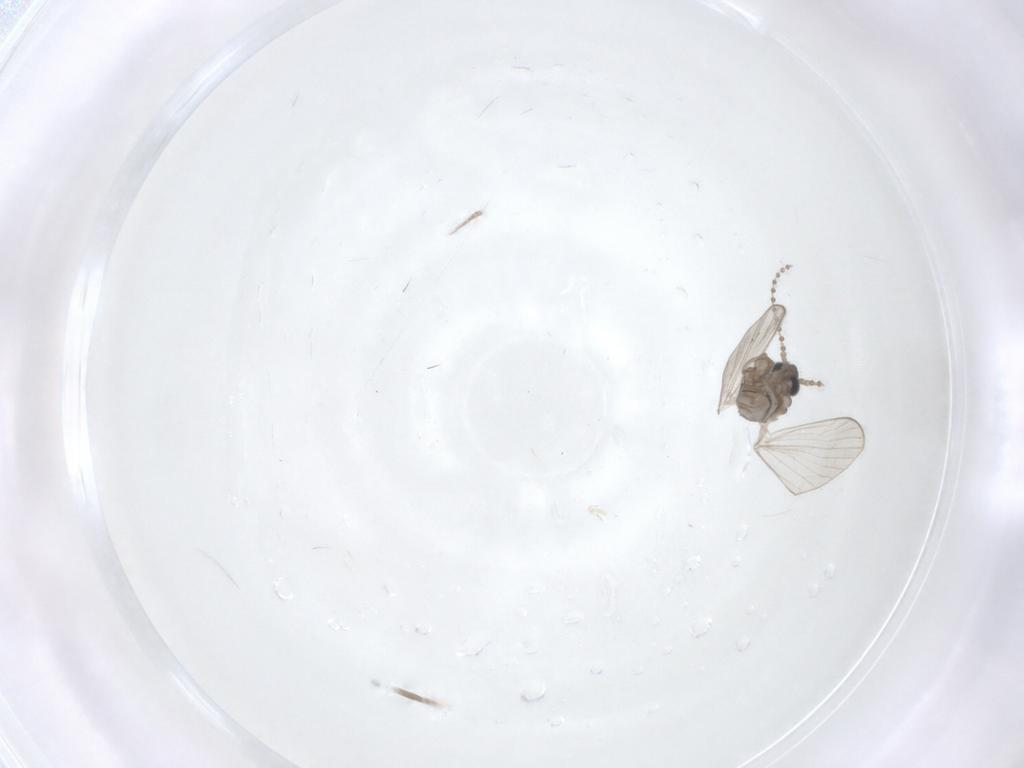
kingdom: Animalia
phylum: Arthropoda
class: Insecta
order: Diptera
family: Psychodidae
